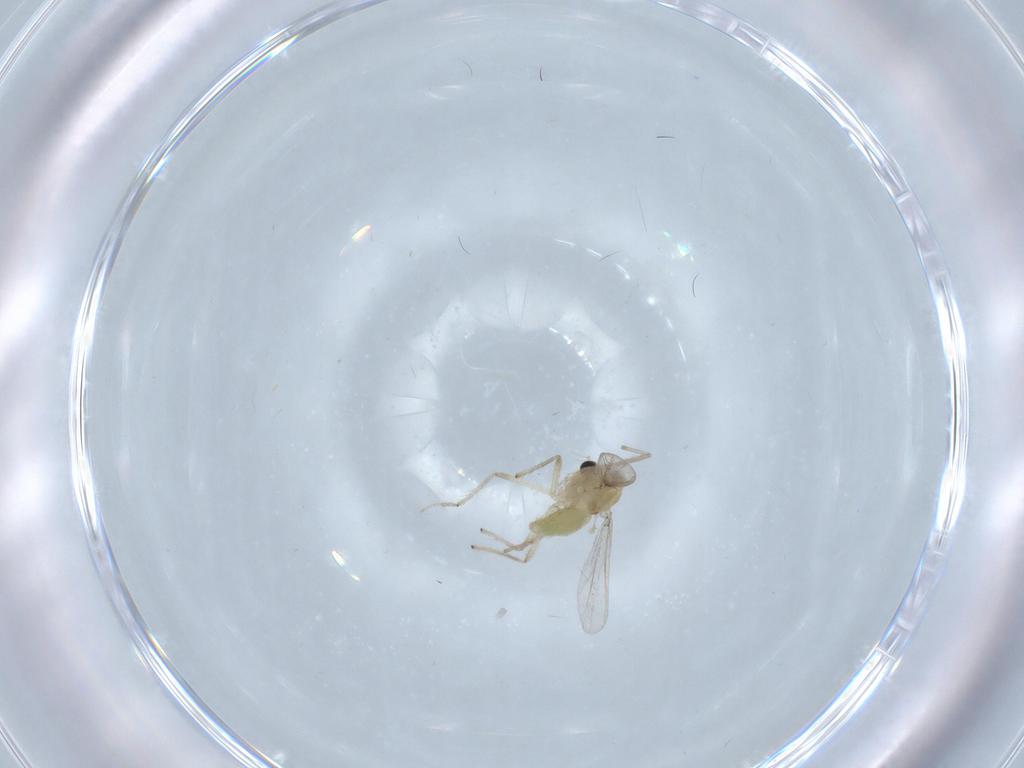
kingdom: Animalia
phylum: Arthropoda
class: Insecta
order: Diptera
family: Chironomidae
